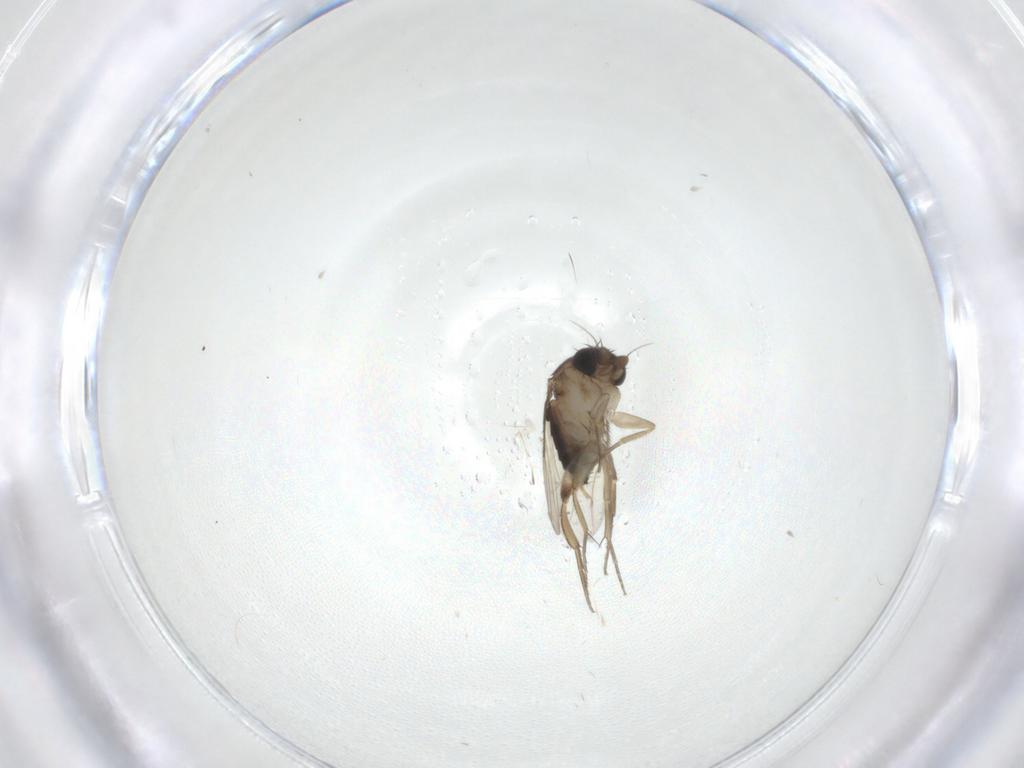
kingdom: Animalia
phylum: Arthropoda
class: Insecta
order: Diptera
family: Phoridae
